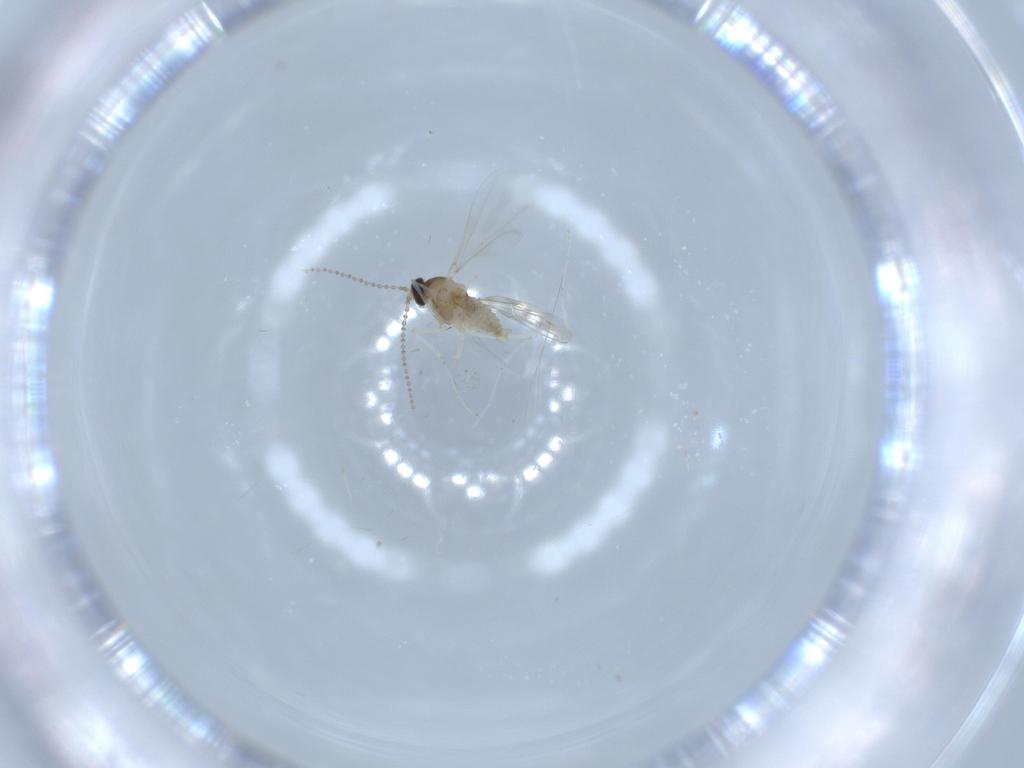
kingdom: Animalia
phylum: Arthropoda
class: Insecta
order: Diptera
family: Cecidomyiidae
